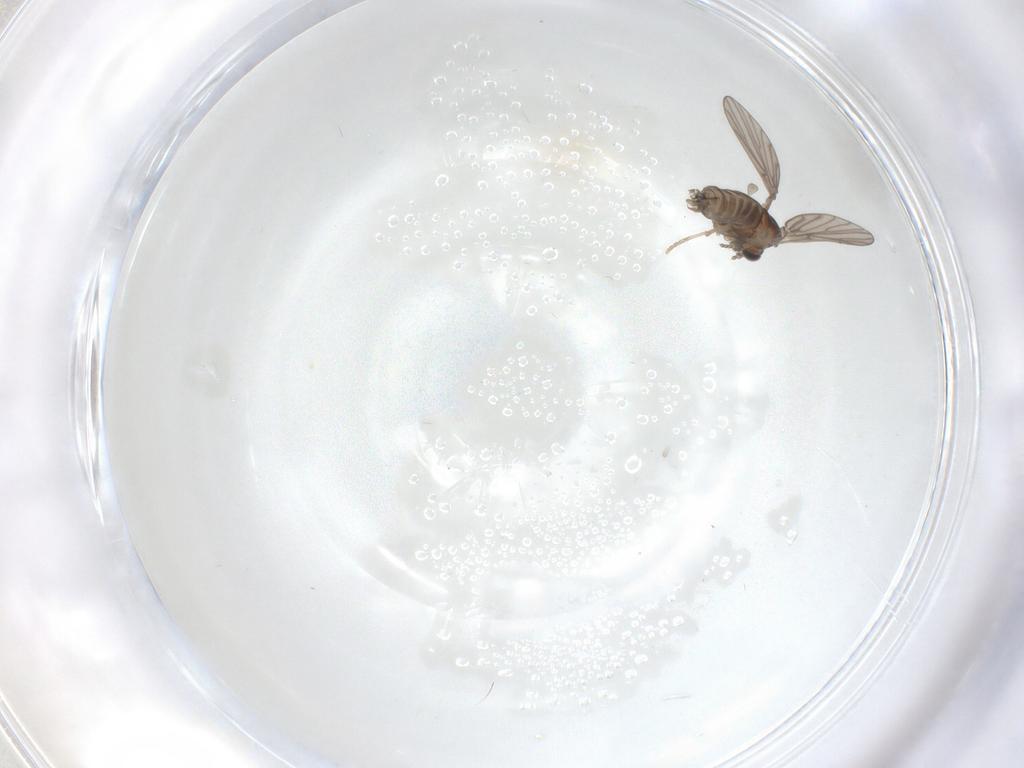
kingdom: Animalia
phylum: Arthropoda
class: Insecta
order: Diptera
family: Psychodidae
